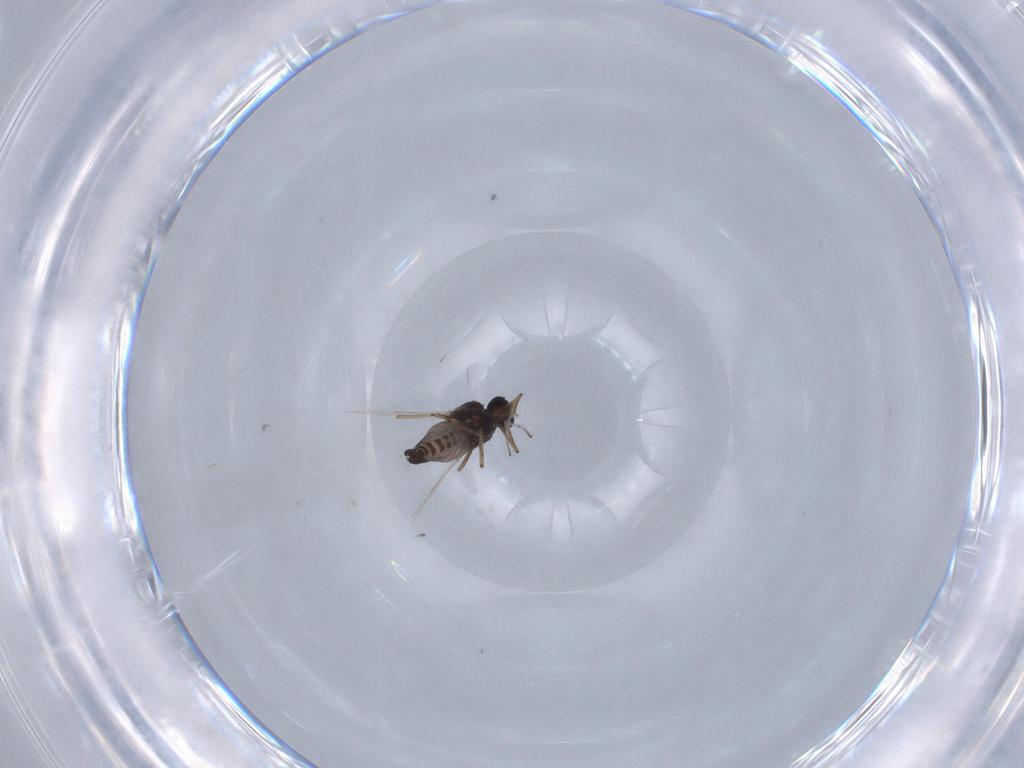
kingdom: Animalia
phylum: Arthropoda
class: Insecta
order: Diptera
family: Ceratopogonidae
